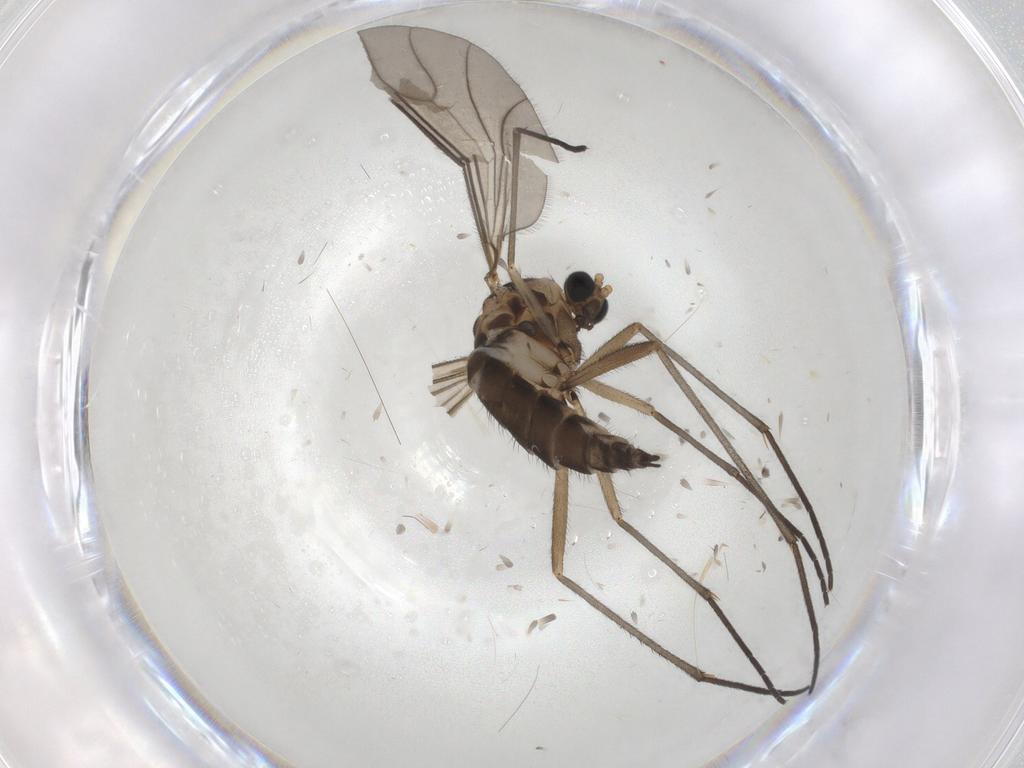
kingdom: Animalia
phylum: Arthropoda
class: Insecta
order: Diptera
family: Sciaridae
